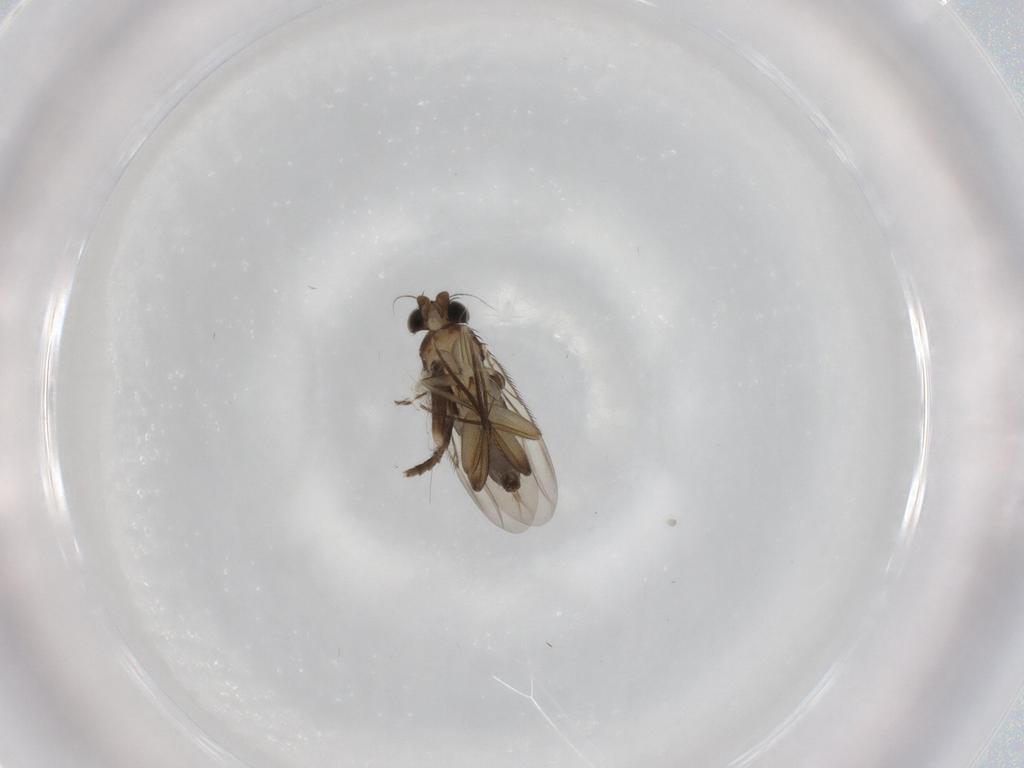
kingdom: Animalia
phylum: Arthropoda
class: Insecta
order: Diptera
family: Phoridae
